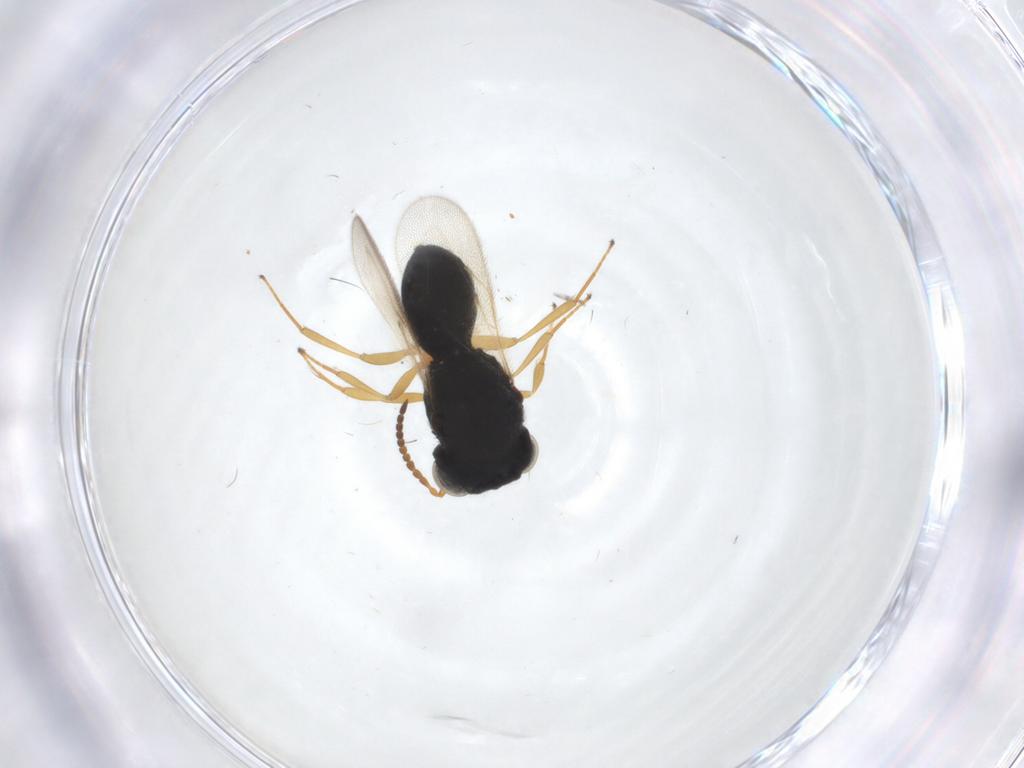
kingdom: Animalia
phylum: Arthropoda
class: Insecta
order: Hymenoptera
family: Scelionidae
